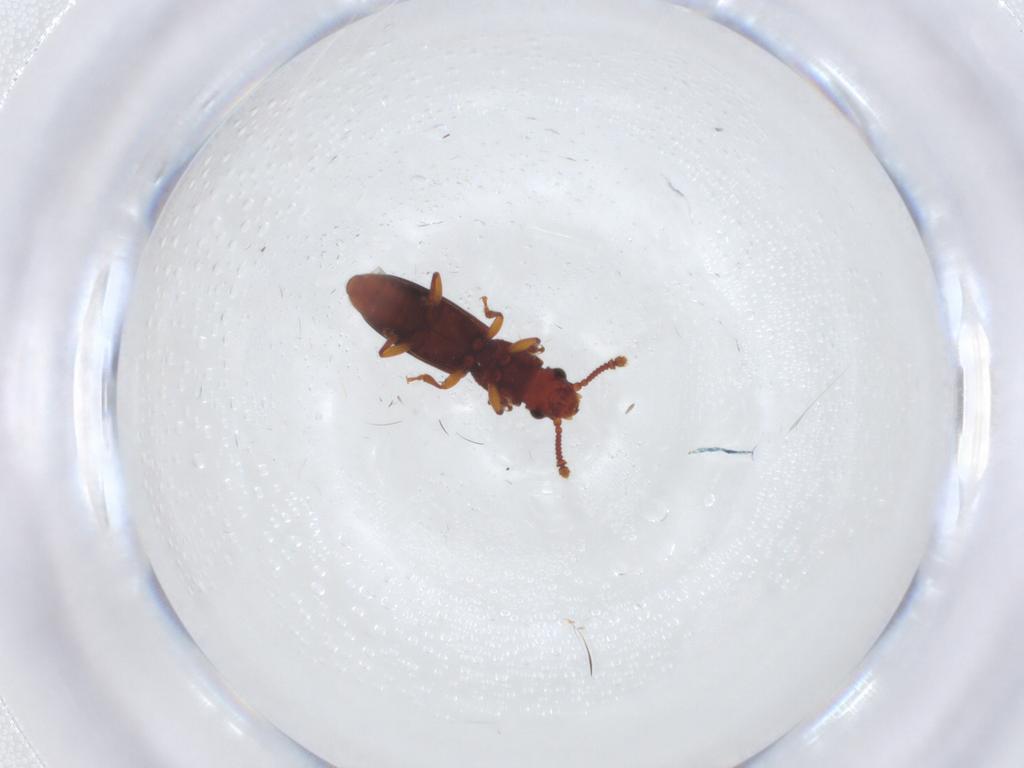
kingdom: Animalia
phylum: Arthropoda
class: Insecta
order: Coleoptera
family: Monotomidae
